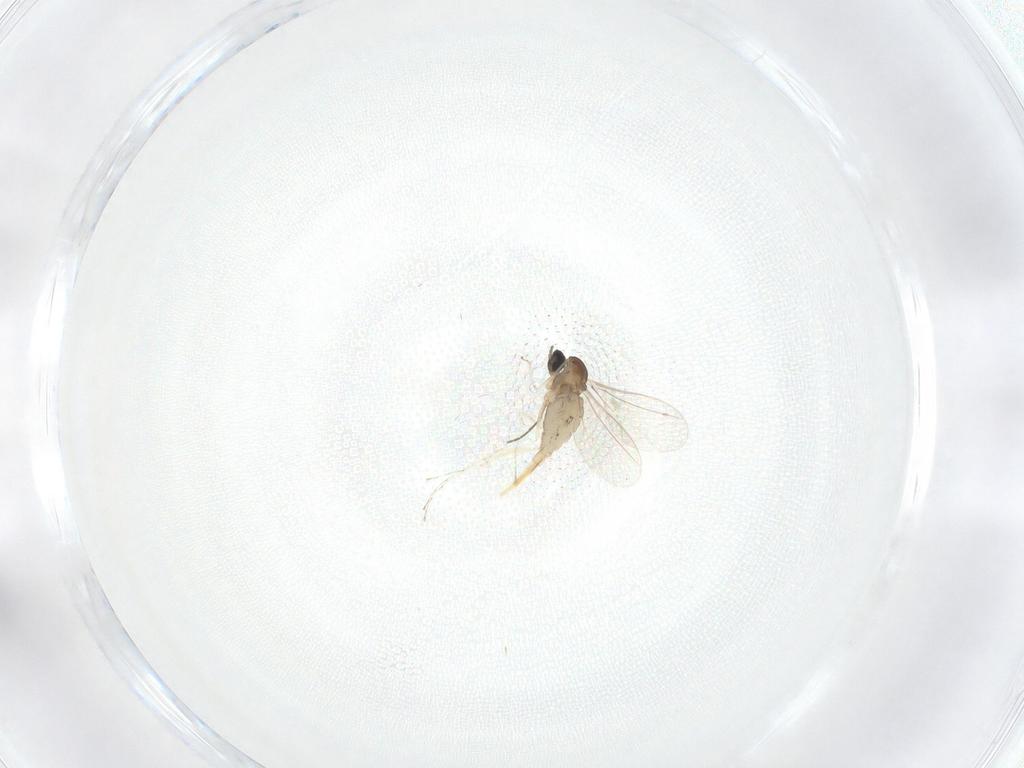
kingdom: Animalia
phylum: Arthropoda
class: Insecta
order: Diptera
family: Cecidomyiidae
